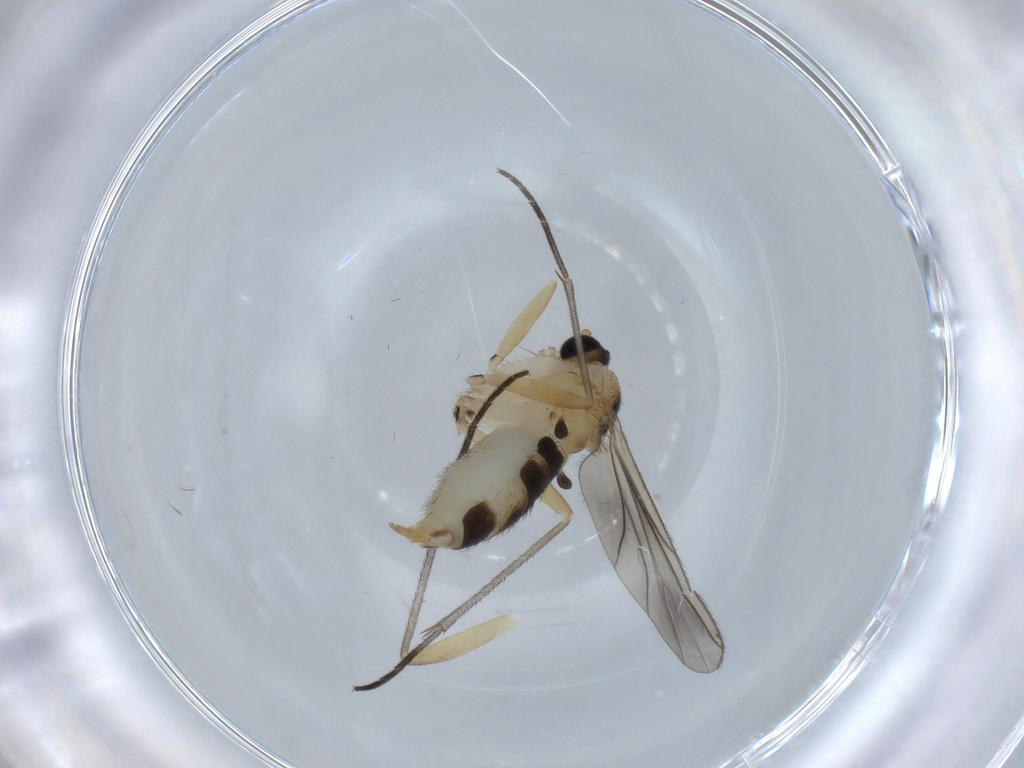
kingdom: Animalia
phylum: Arthropoda
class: Insecta
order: Diptera
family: Sciaridae
